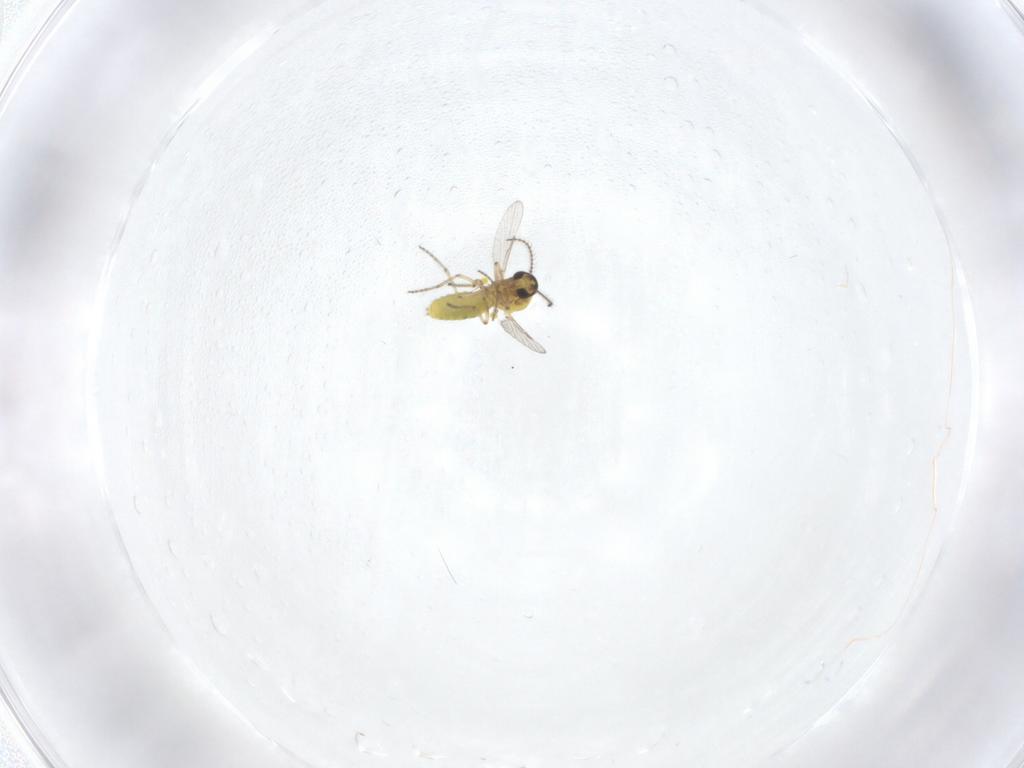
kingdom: Animalia
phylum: Arthropoda
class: Insecta
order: Diptera
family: Ceratopogonidae
